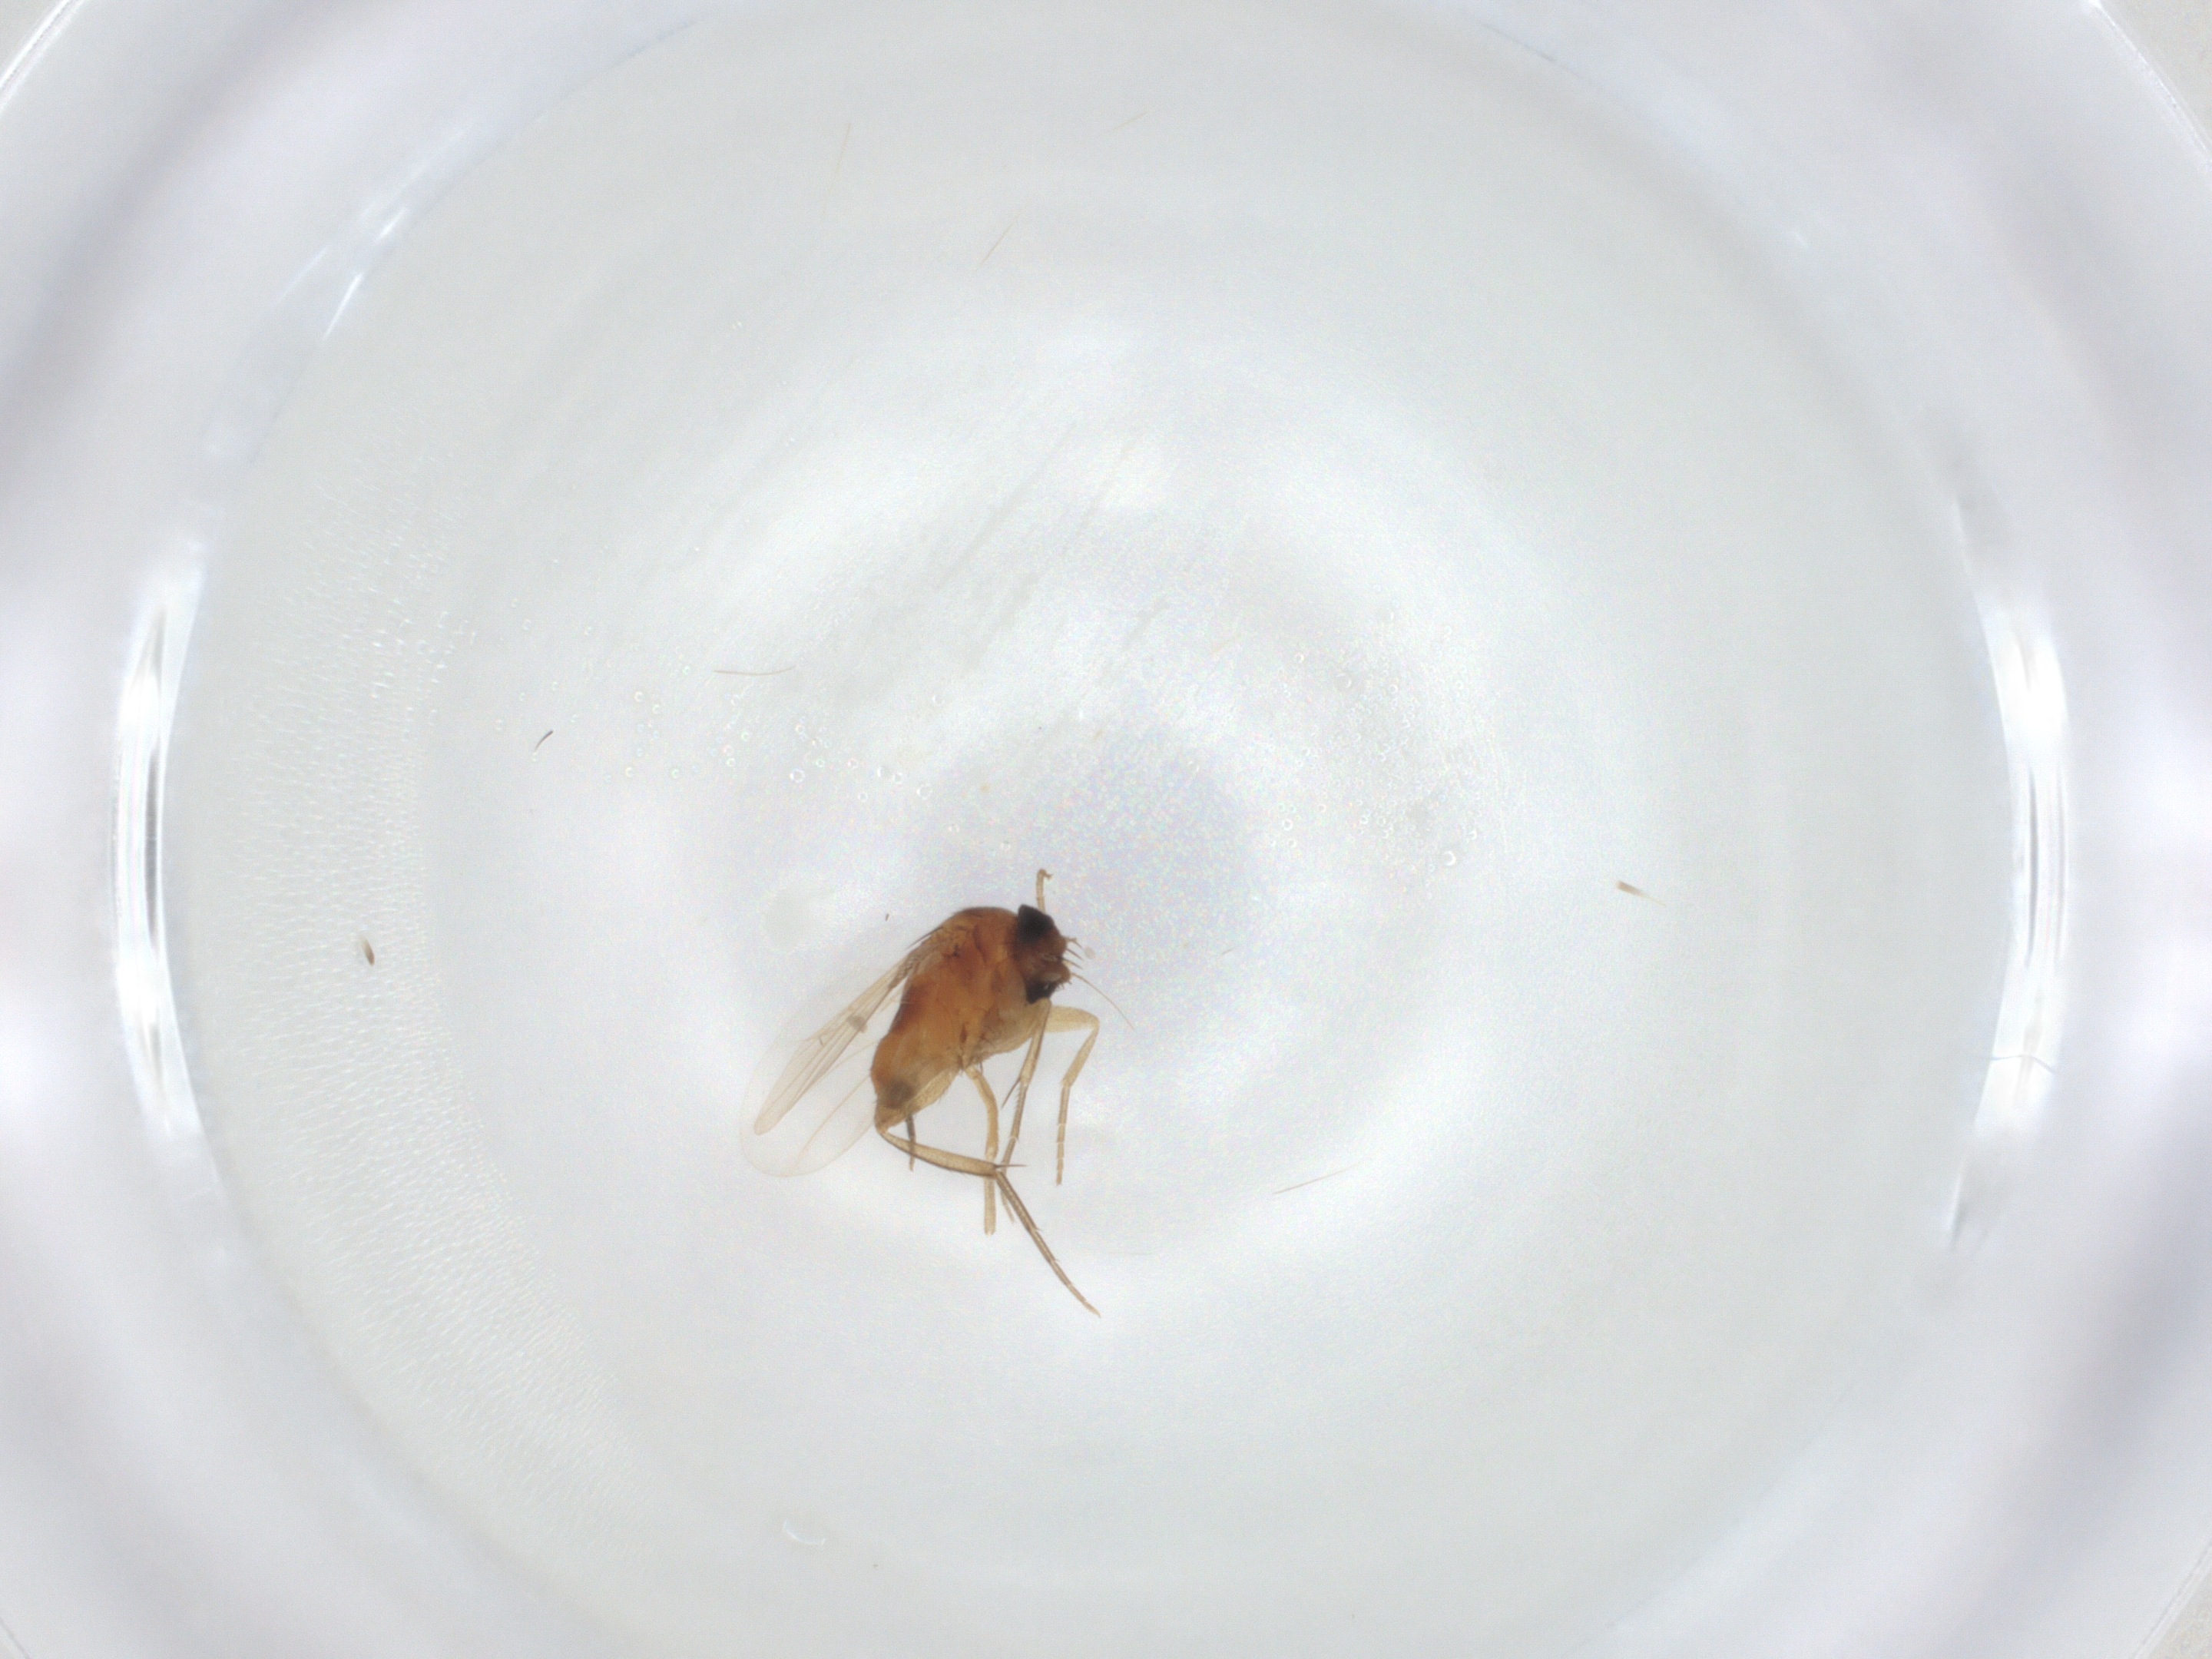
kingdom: Animalia
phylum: Arthropoda
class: Insecta
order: Diptera
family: Phoridae
